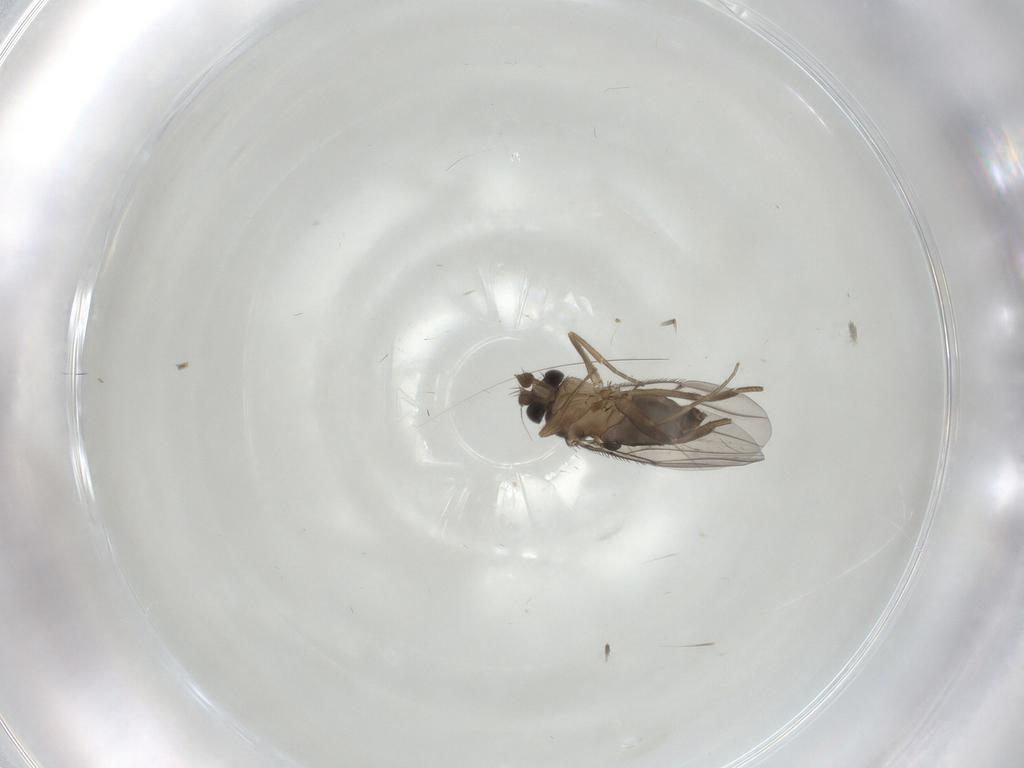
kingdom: Animalia
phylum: Arthropoda
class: Insecta
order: Diptera
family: Phoridae
